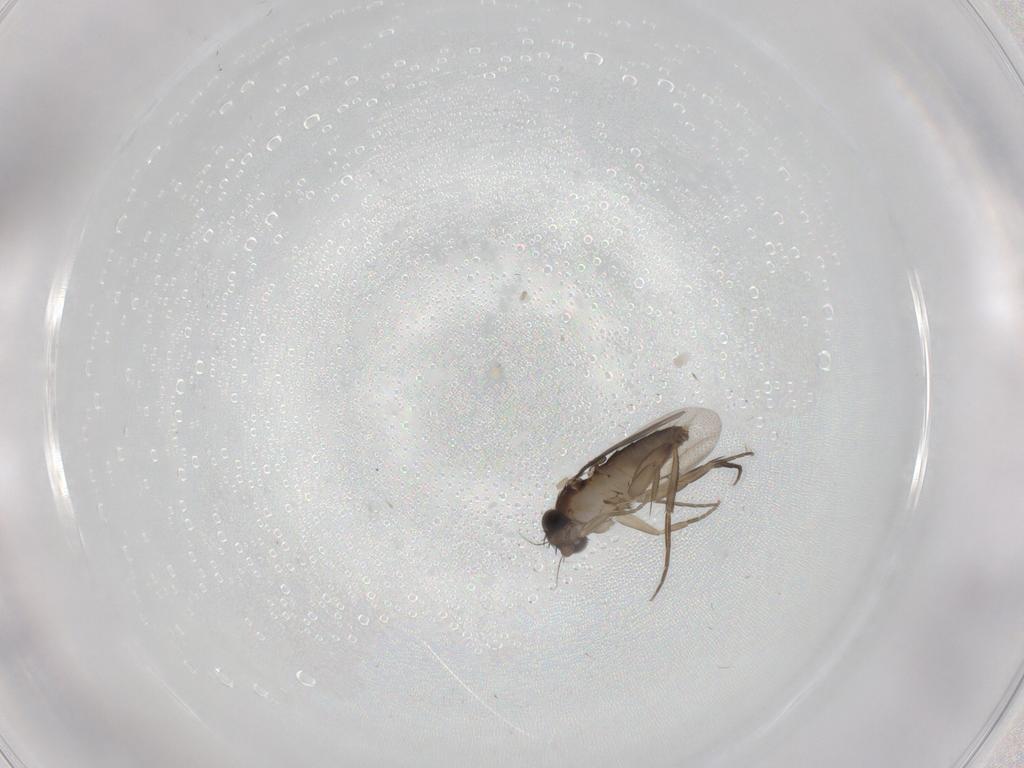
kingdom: Animalia
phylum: Arthropoda
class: Insecta
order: Diptera
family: Phoridae
